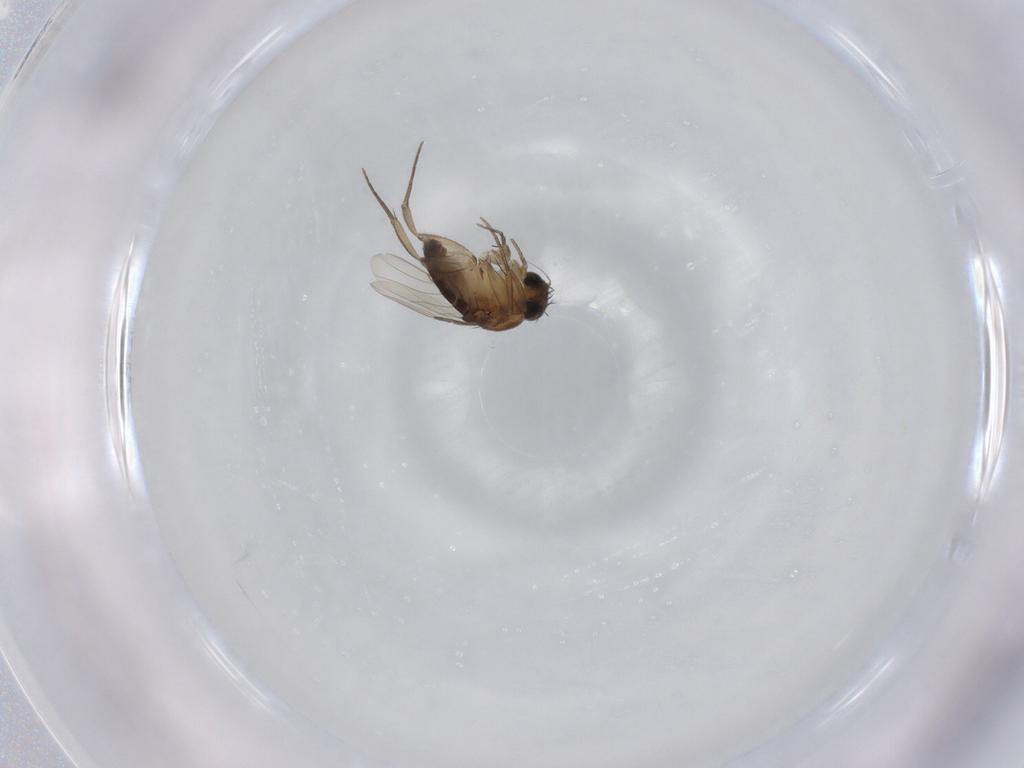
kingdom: Animalia
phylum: Arthropoda
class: Insecta
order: Diptera
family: Phoridae
